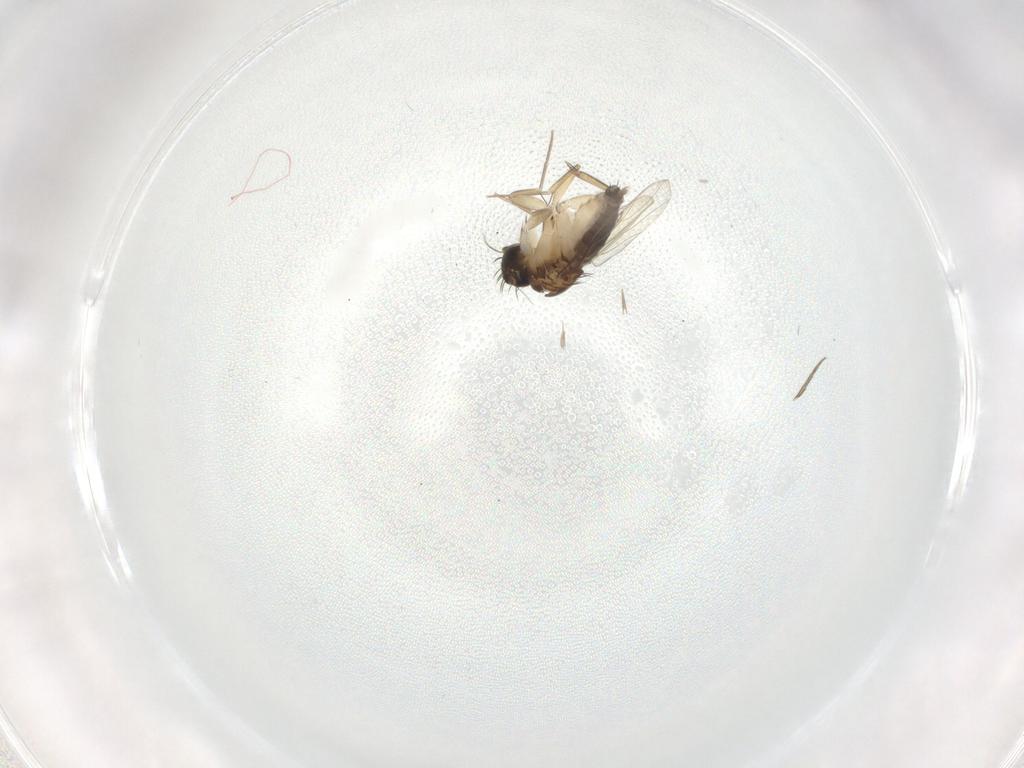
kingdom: Animalia
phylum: Arthropoda
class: Insecta
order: Diptera
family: Phoridae
